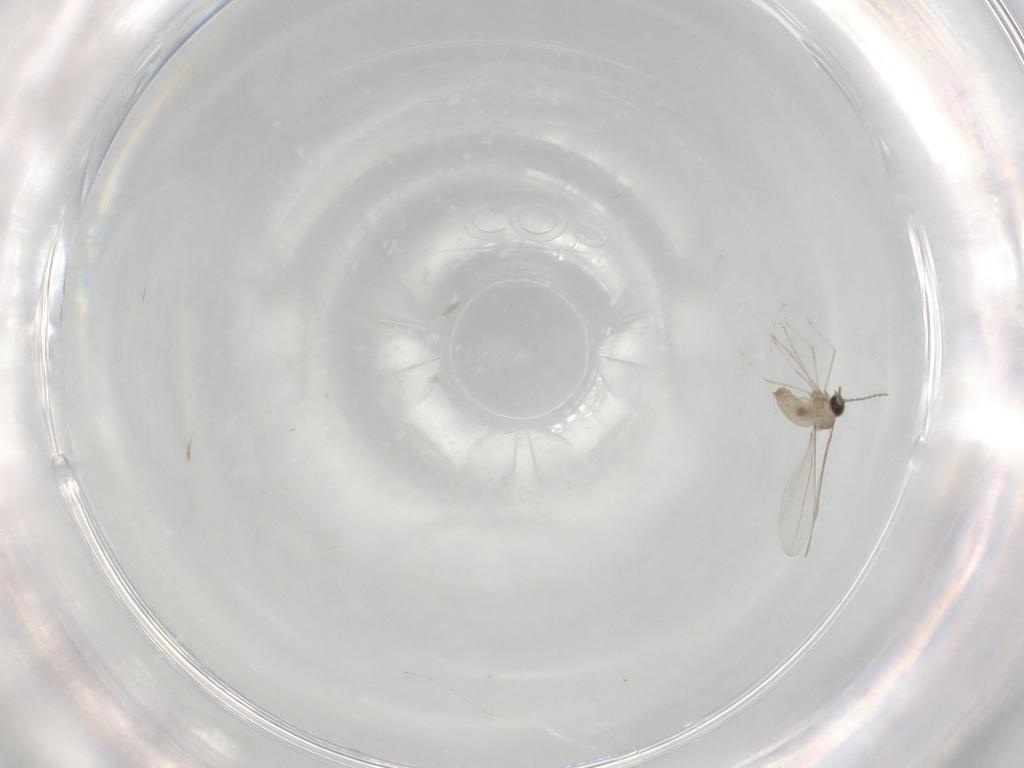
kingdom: Animalia
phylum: Arthropoda
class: Insecta
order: Diptera
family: Cecidomyiidae
